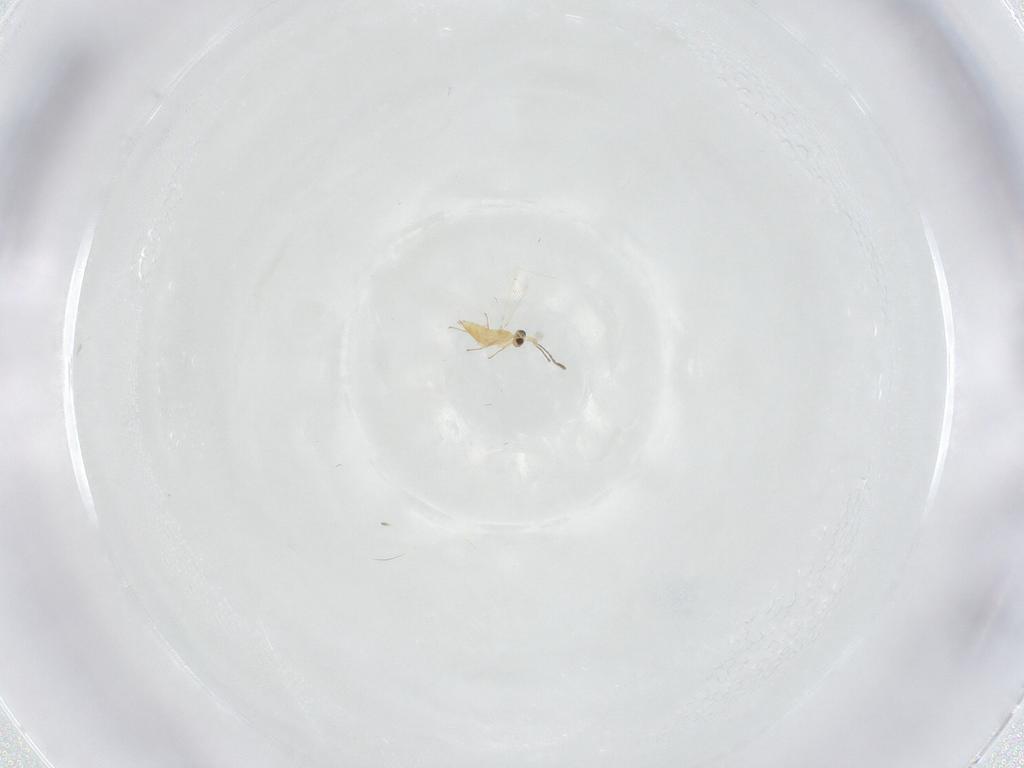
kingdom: Animalia
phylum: Arthropoda
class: Insecta
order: Hymenoptera
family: Mymaridae
